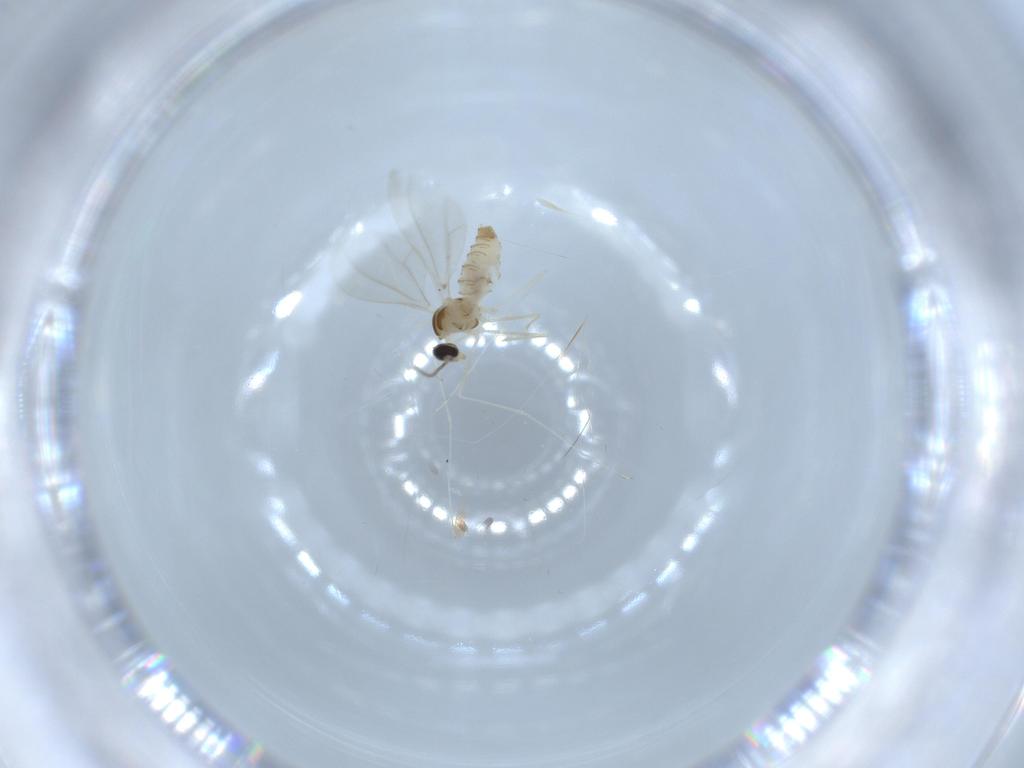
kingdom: Animalia
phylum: Arthropoda
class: Insecta
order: Diptera
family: Cecidomyiidae
